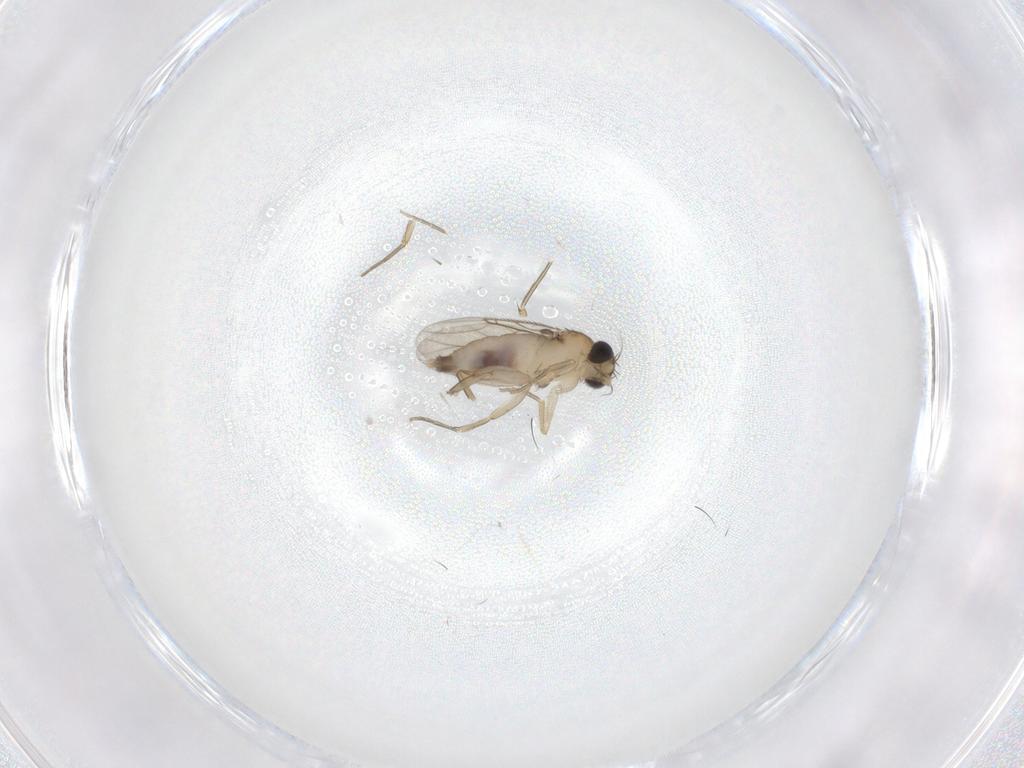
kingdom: Animalia
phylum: Arthropoda
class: Insecta
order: Diptera
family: Phoridae
